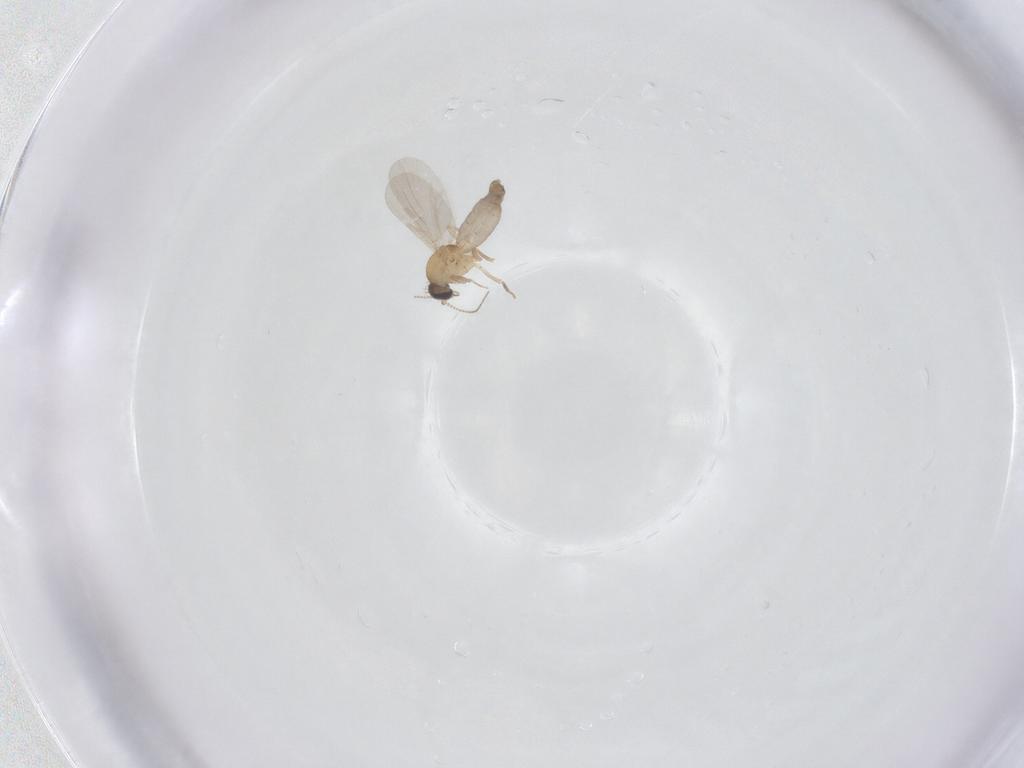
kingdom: Animalia
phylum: Arthropoda
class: Insecta
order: Diptera
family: Ceratopogonidae
